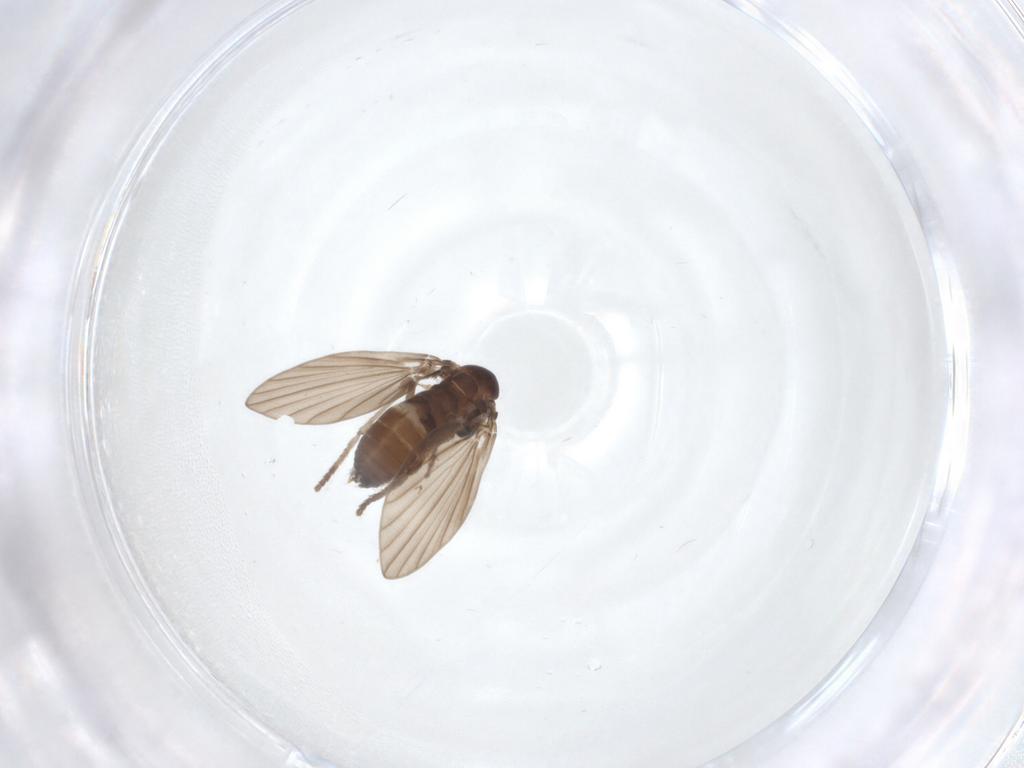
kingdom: Animalia
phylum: Arthropoda
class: Insecta
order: Diptera
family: Psychodidae
